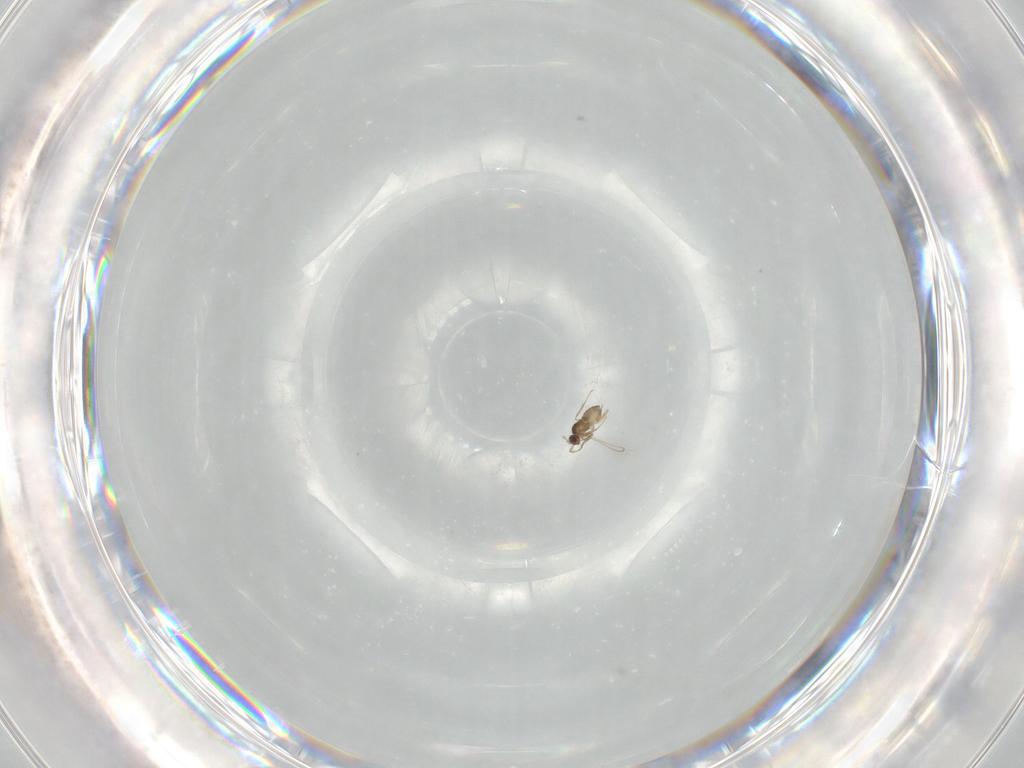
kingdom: Animalia
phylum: Arthropoda
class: Insecta
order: Hymenoptera
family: Mymaridae
